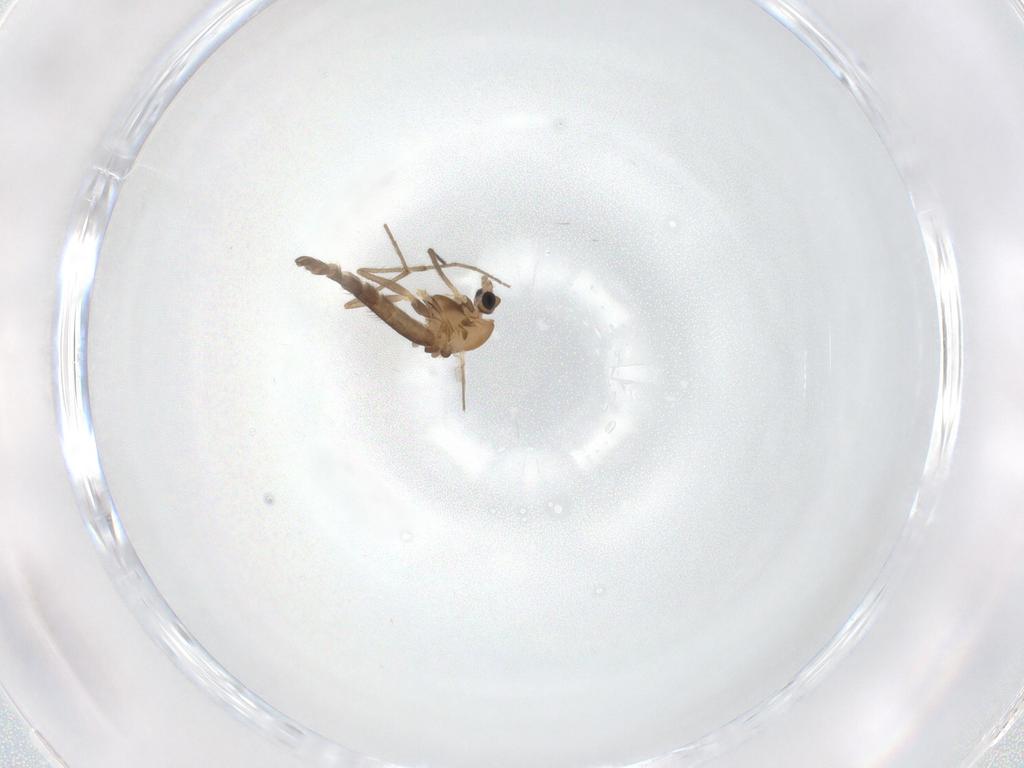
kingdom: Animalia
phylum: Arthropoda
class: Insecta
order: Diptera
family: Chironomidae
